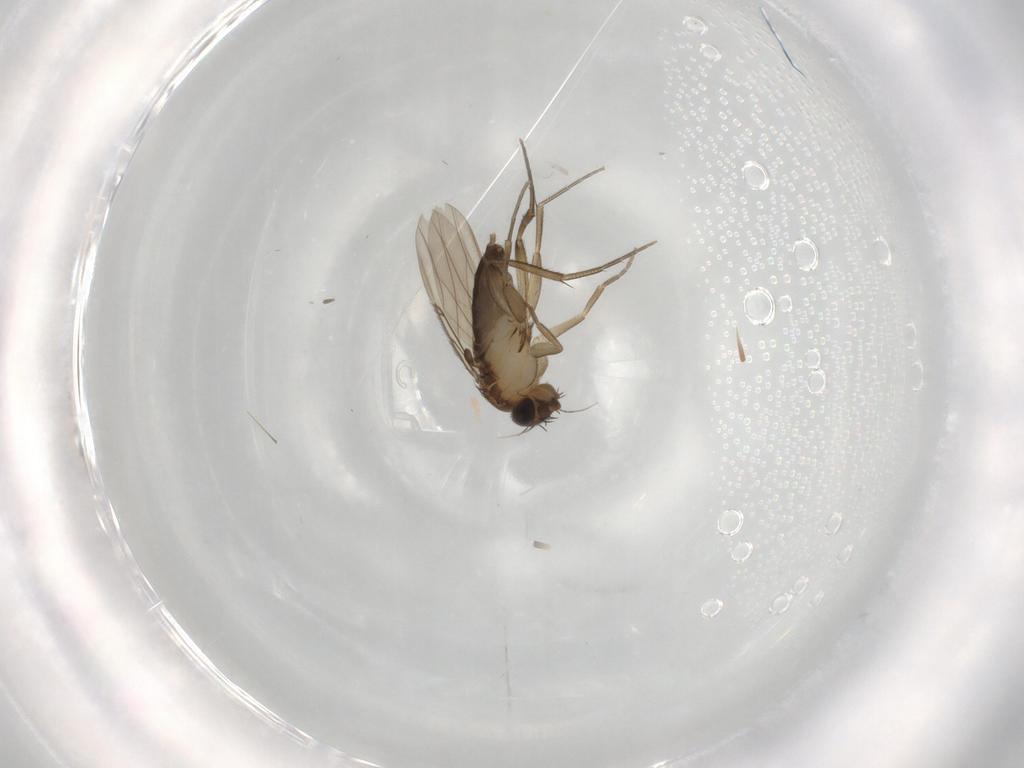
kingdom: Animalia
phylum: Arthropoda
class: Insecta
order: Diptera
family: Phoridae
